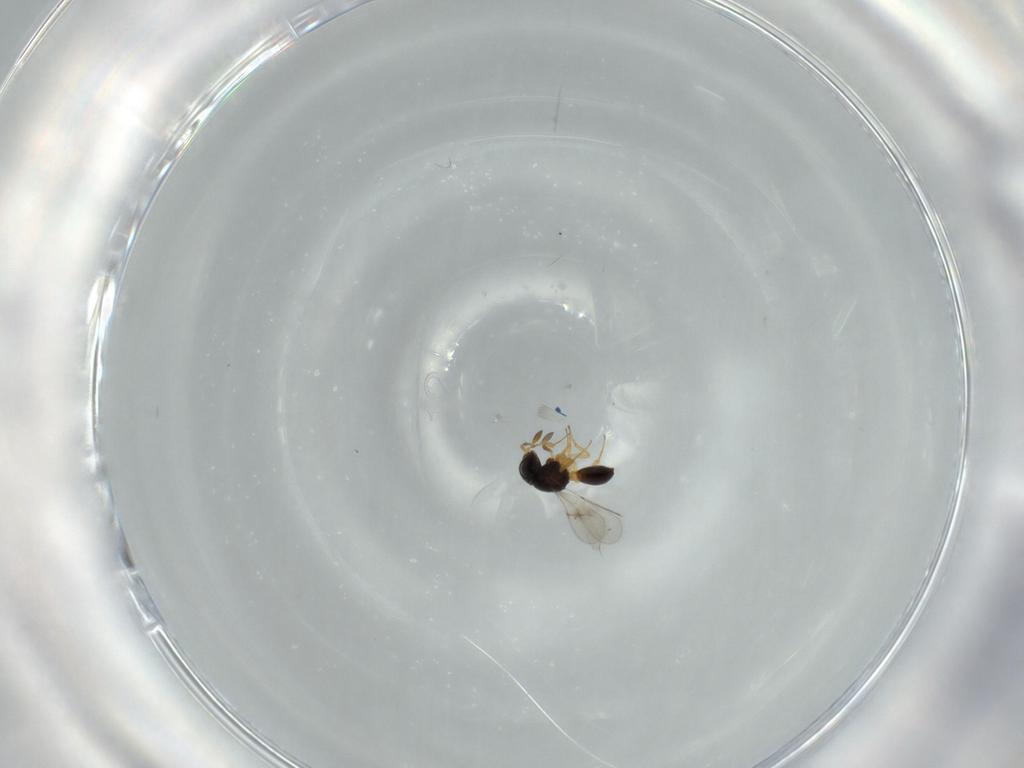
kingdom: Animalia
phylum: Arthropoda
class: Insecta
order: Hymenoptera
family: Scelionidae
